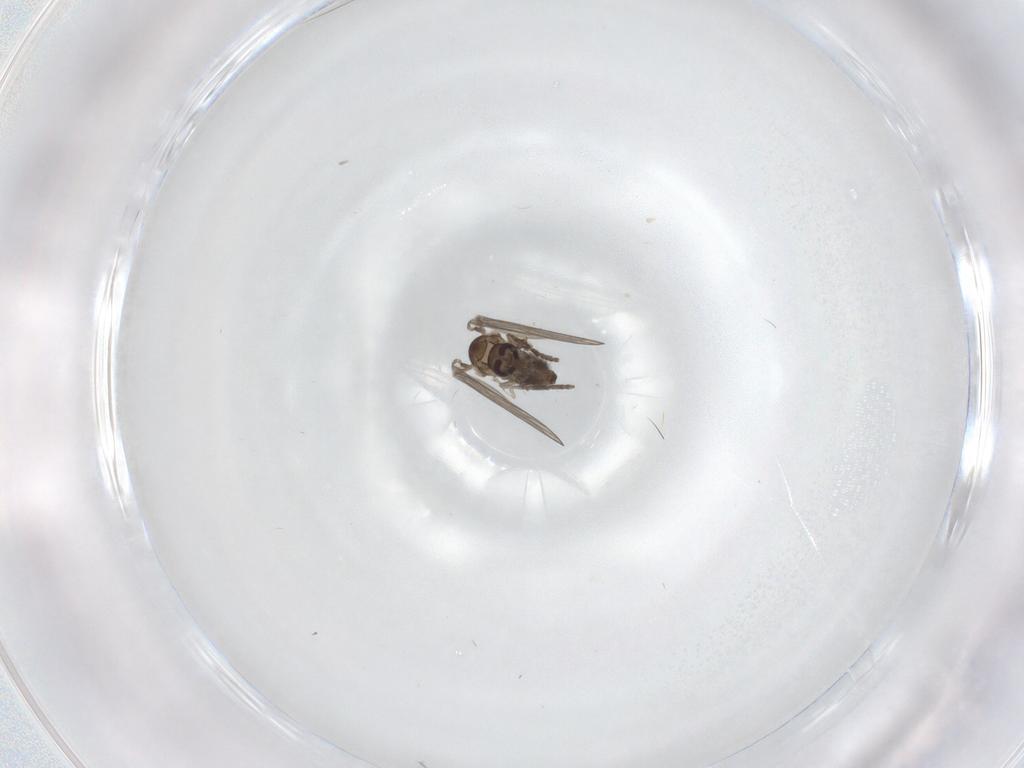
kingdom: Animalia
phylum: Arthropoda
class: Insecta
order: Diptera
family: Psychodidae
